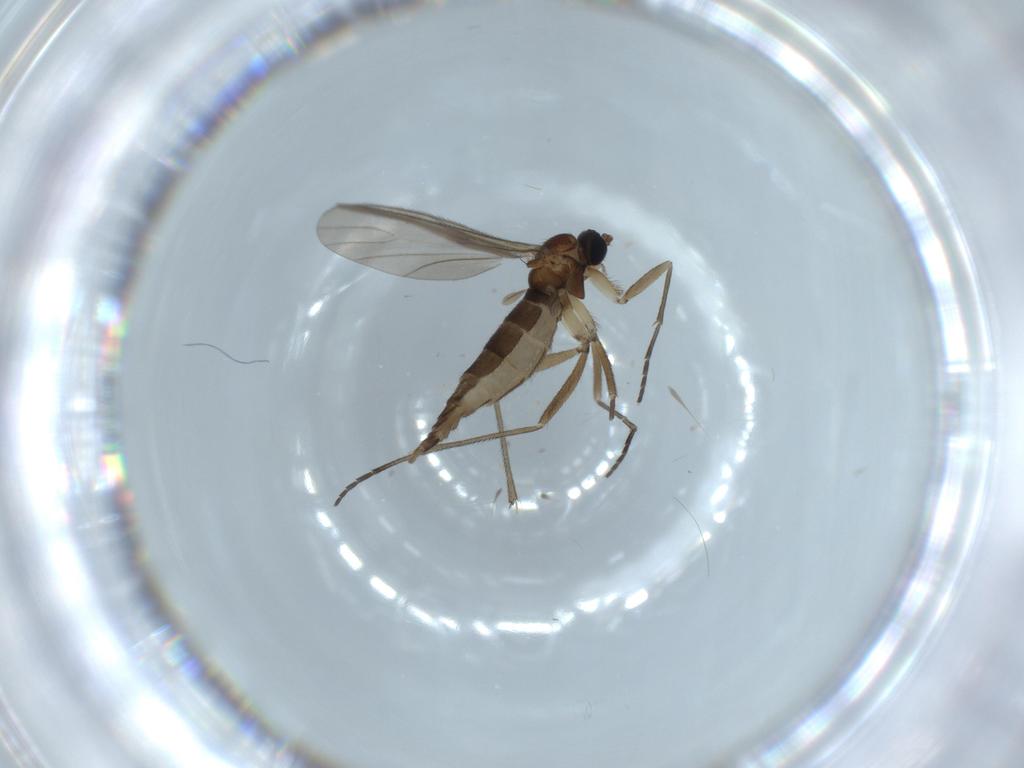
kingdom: Animalia
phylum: Arthropoda
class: Insecta
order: Diptera
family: Sciaridae
